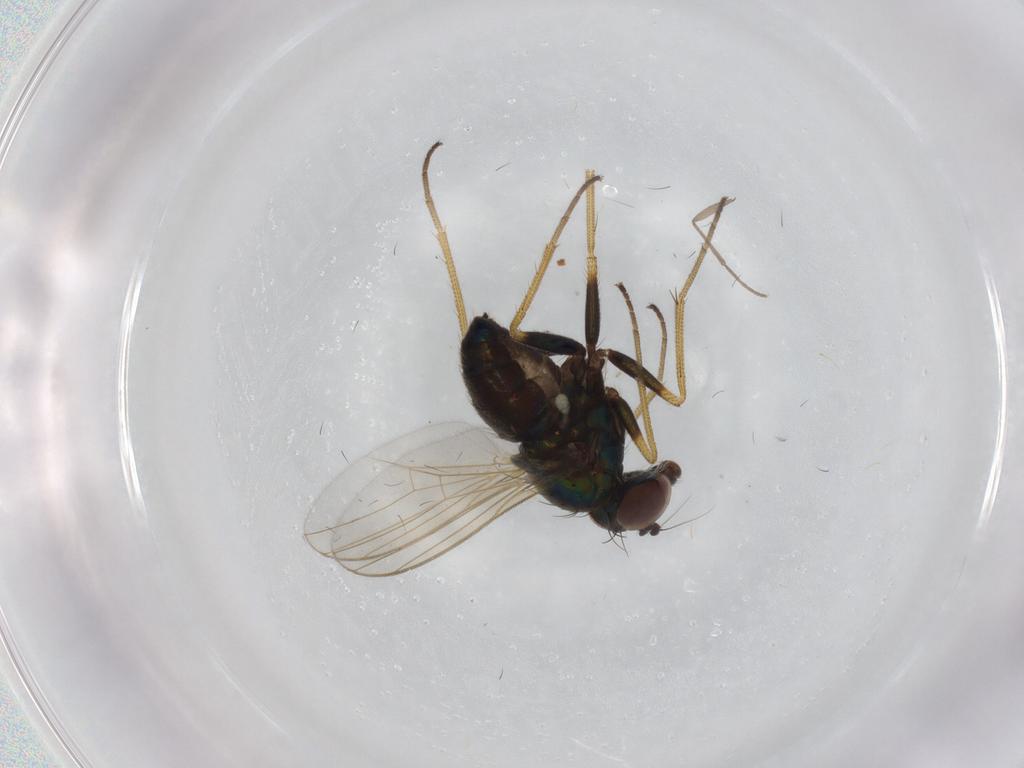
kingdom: Animalia
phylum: Arthropoda
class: Insecta
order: Diptera
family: Dolichopodidae
